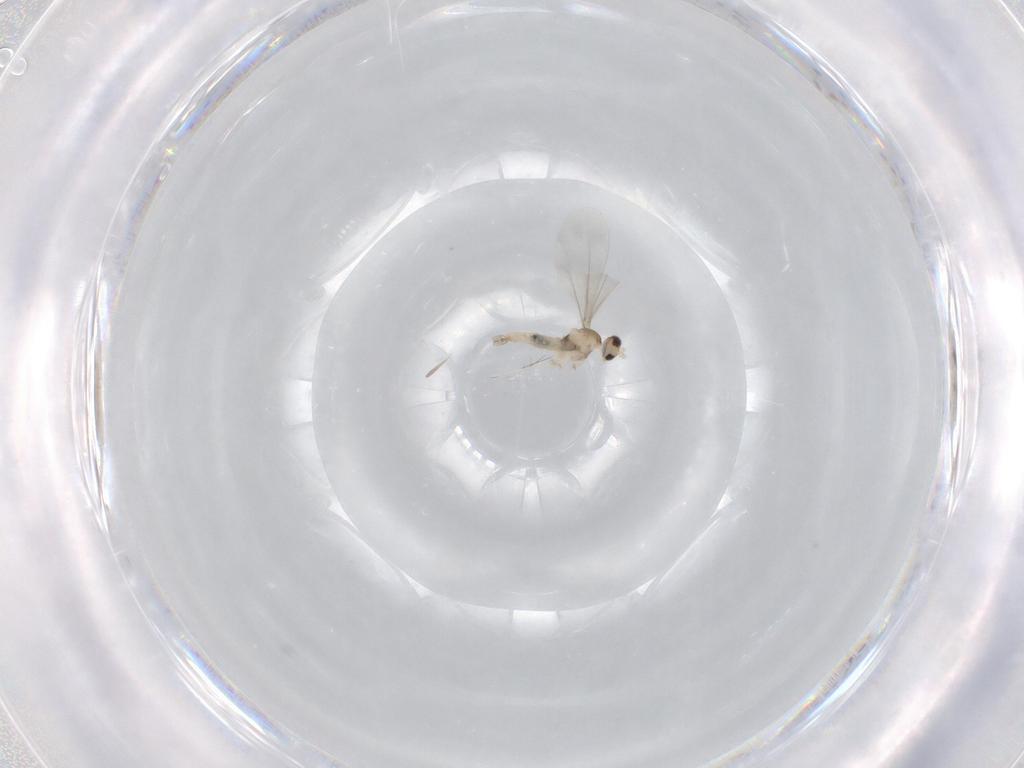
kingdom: Animalia
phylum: Arthropoda
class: Insecta
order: Diptera
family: Cecidomyiidae
